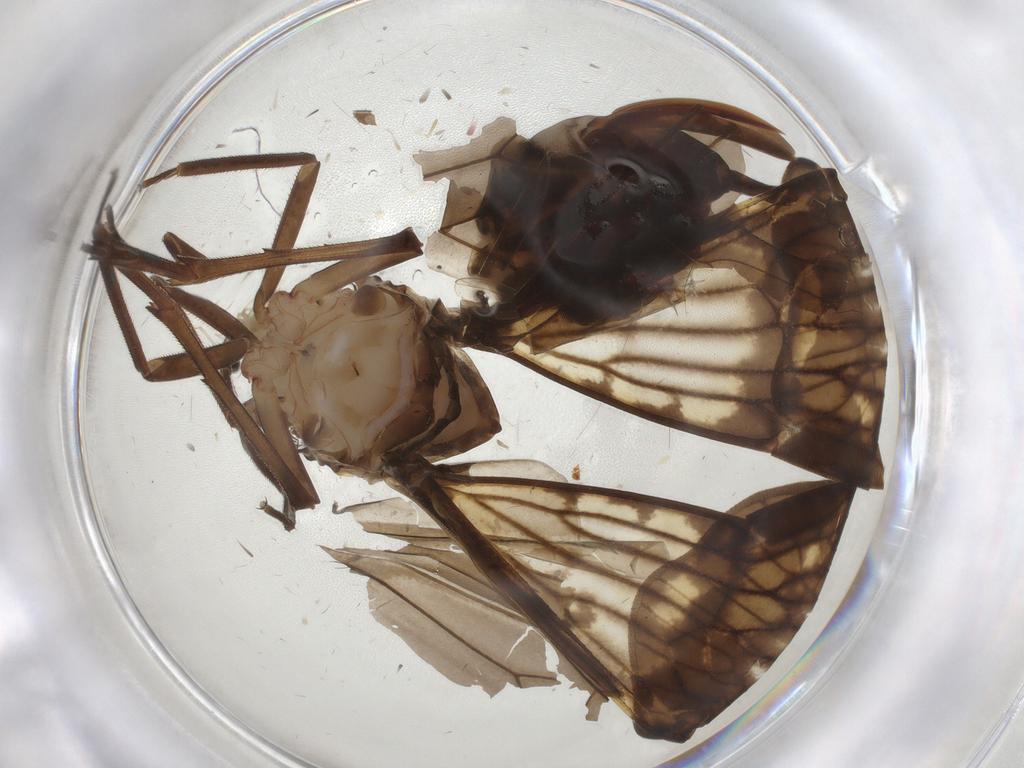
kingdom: Animalia
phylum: Arthropoda
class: Insecta
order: Hemiptera
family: Cixiidae
